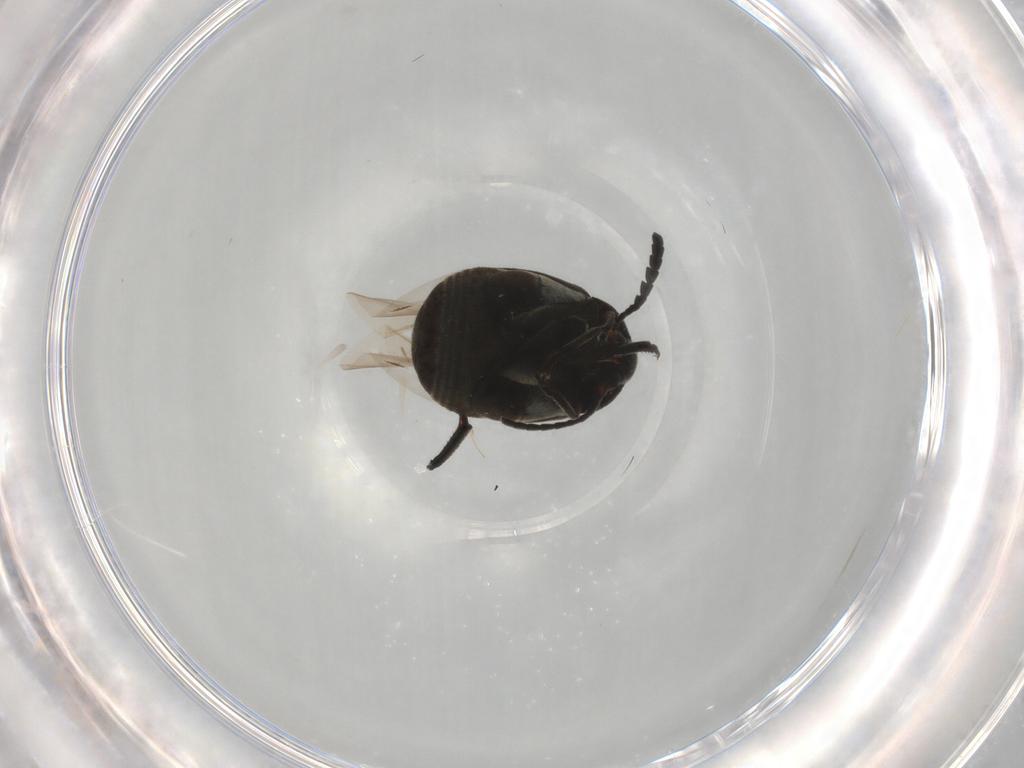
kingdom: Animalia
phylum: Arthropoda
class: Insecta
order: Coleoptera
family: Chrysomelidae
